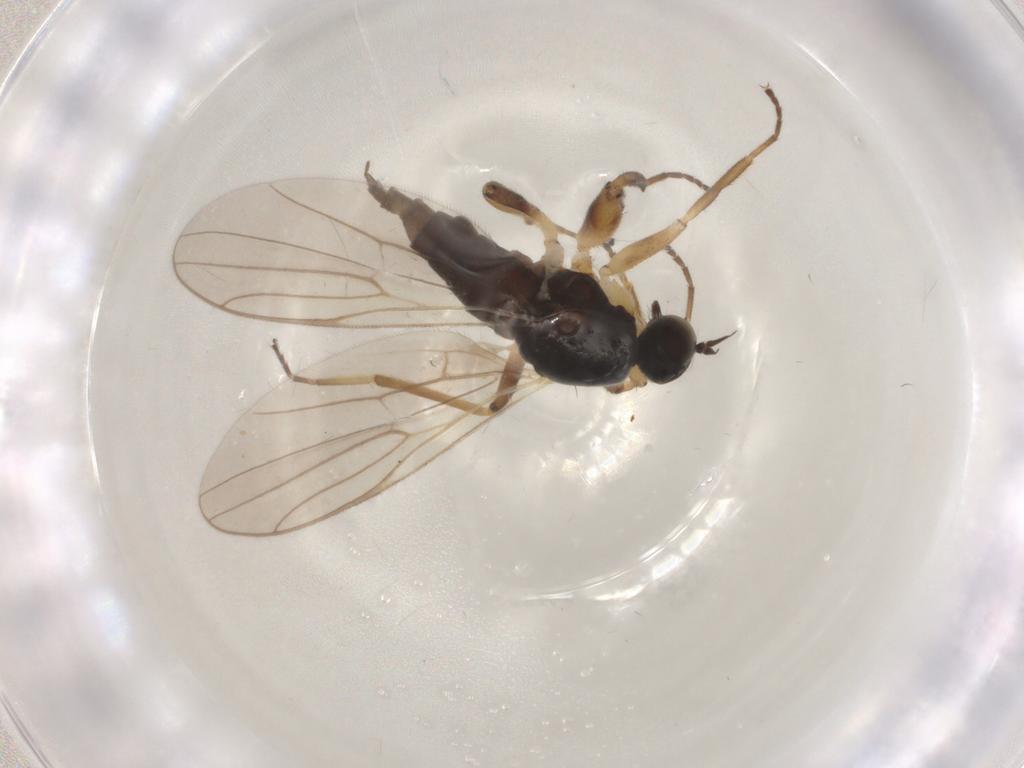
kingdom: Animalia
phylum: Arthropoda
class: Insecta
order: Diptera
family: Hybotidae
